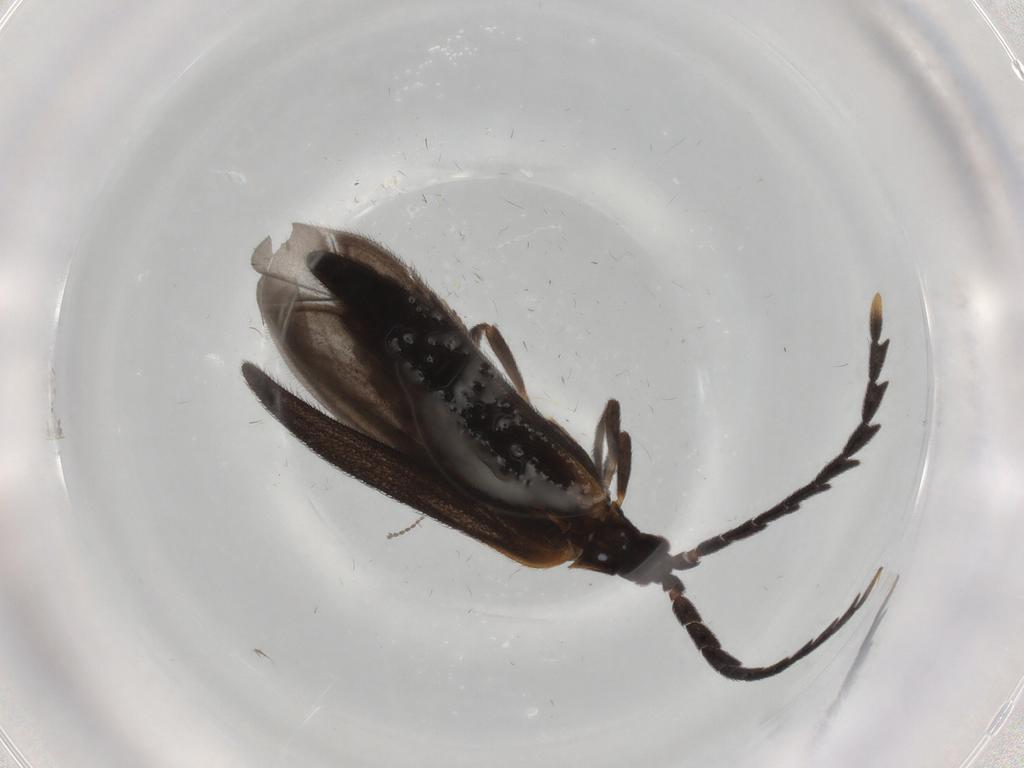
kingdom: Animalia
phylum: Arthropoda
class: Insecta
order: Coleoptera
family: Lycidae
